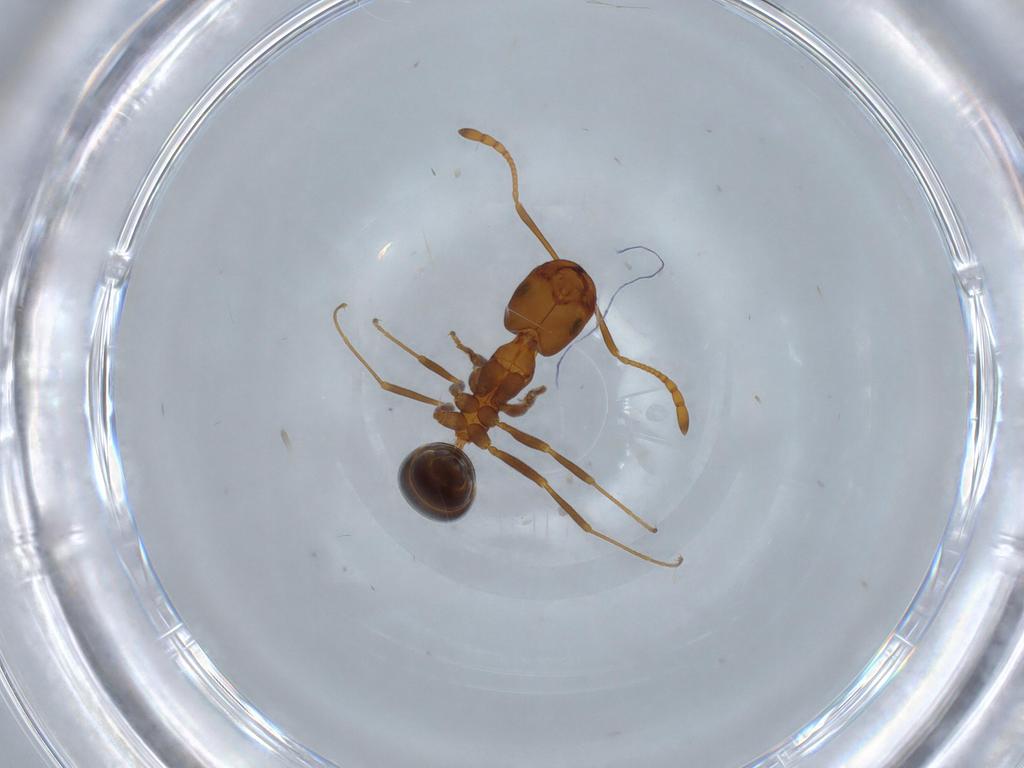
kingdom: Animalia
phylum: Arthropoda
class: Insecta
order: Hymenoptera
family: Formicidae
